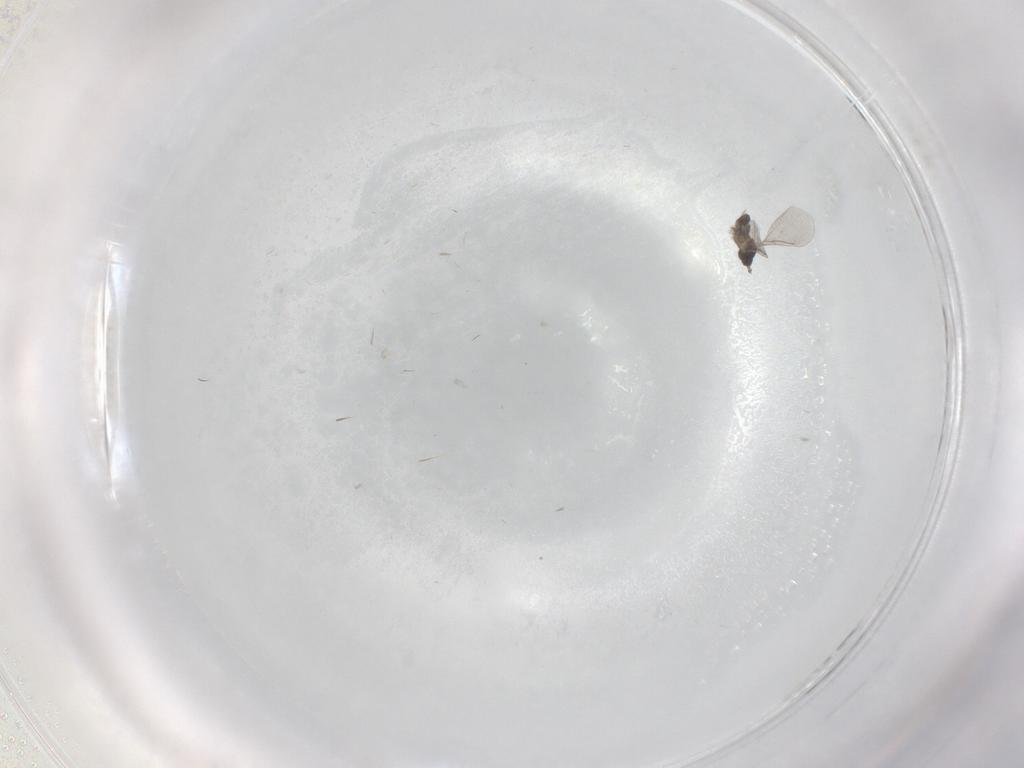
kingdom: Animalia
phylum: Arthropoda
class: Insecta
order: Diptera
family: Cecidomyiidae
